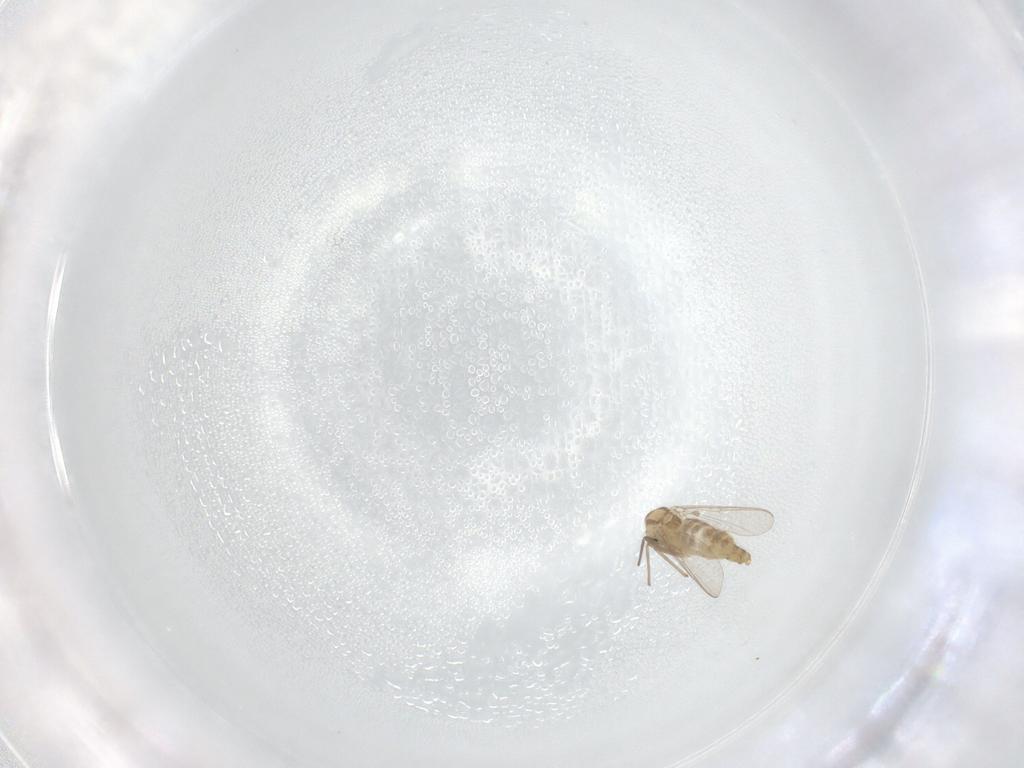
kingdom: Animalia
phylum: Arthropoda
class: Insecta
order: Diptera
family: Chironomidae
